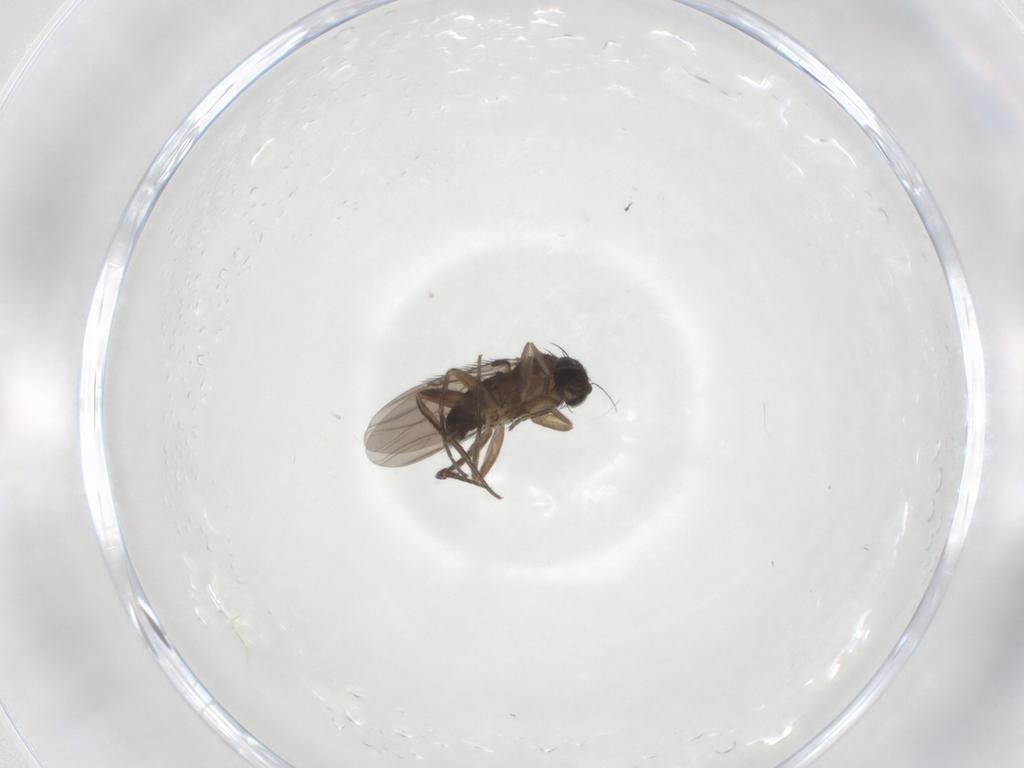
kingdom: Animalia
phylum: Arthropoda
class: Insecta
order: Diptera
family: Phoridae
